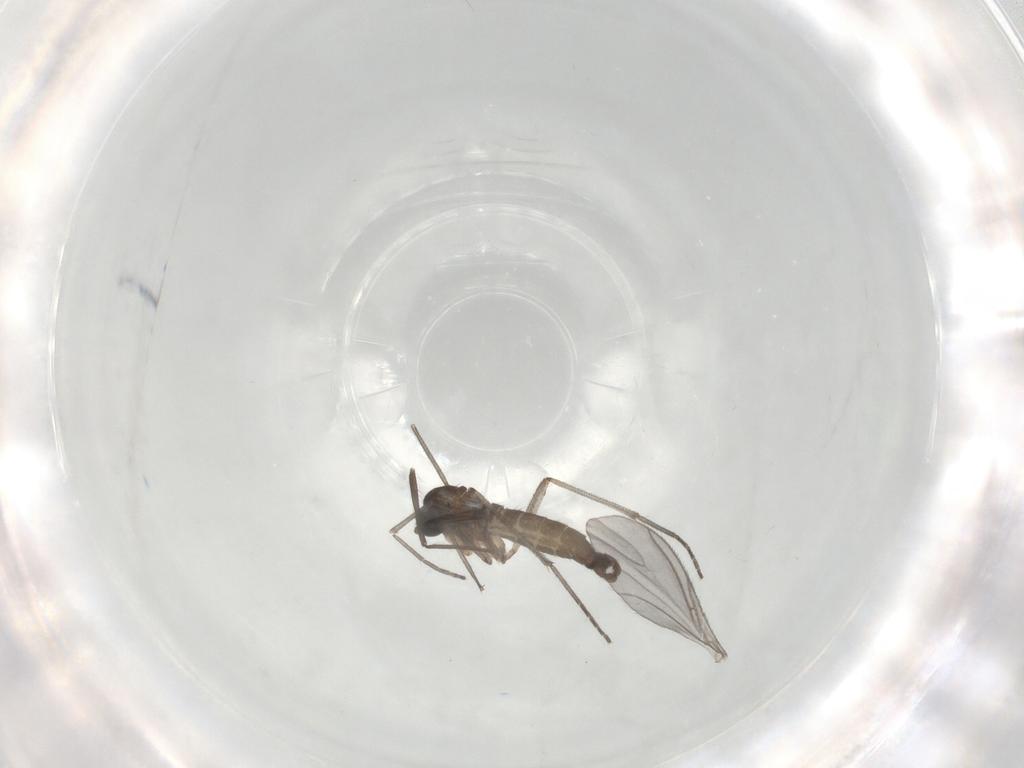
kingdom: Animalia
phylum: Arthropoda
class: Insecta
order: Diptera
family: Sciaridae
